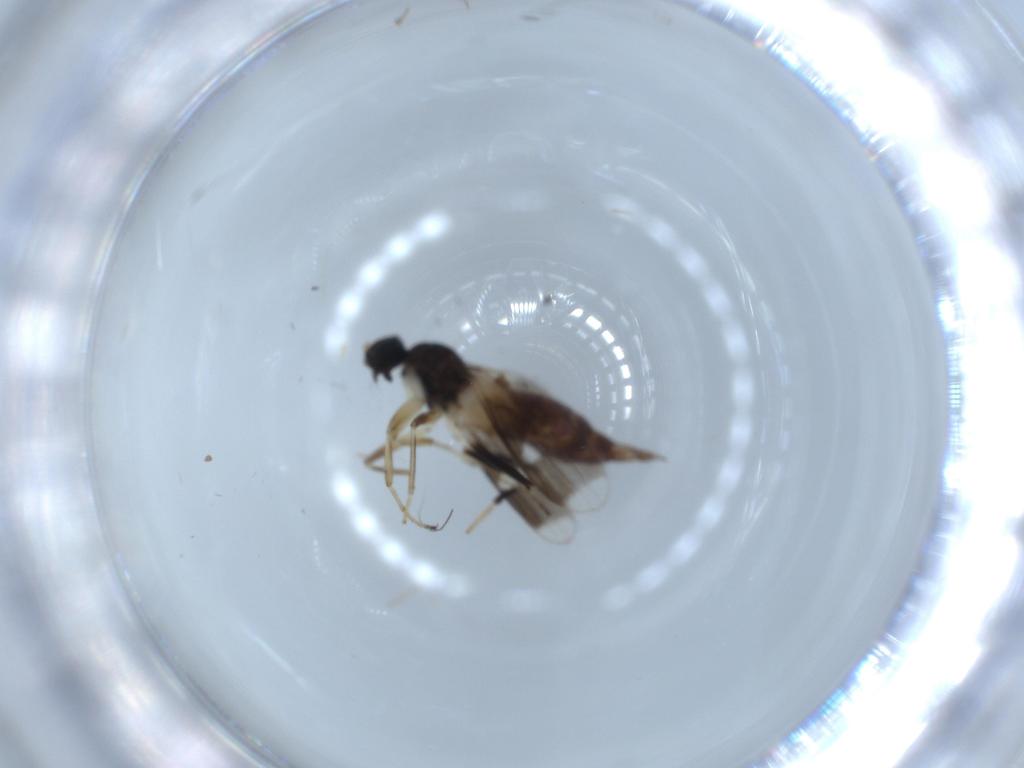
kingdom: Animalia
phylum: Arthropoda
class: Insecta
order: Diptera
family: Hybotidae
